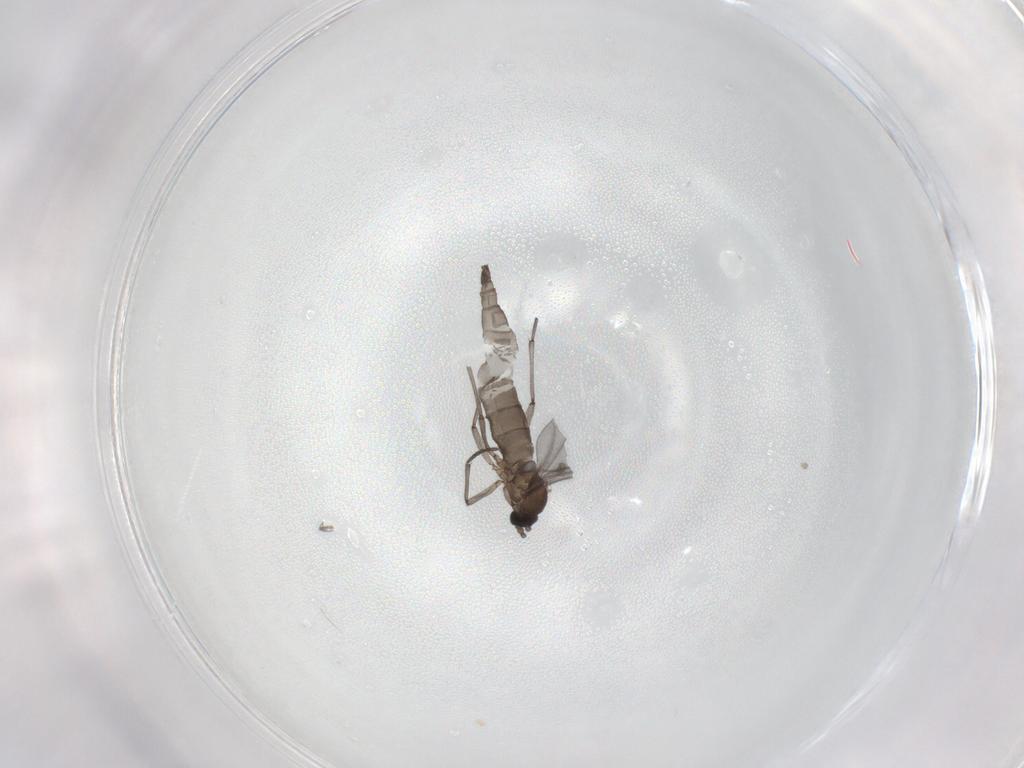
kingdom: Animalia
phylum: Arthropoda
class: Insecta
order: Diptera
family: Sciaridae
